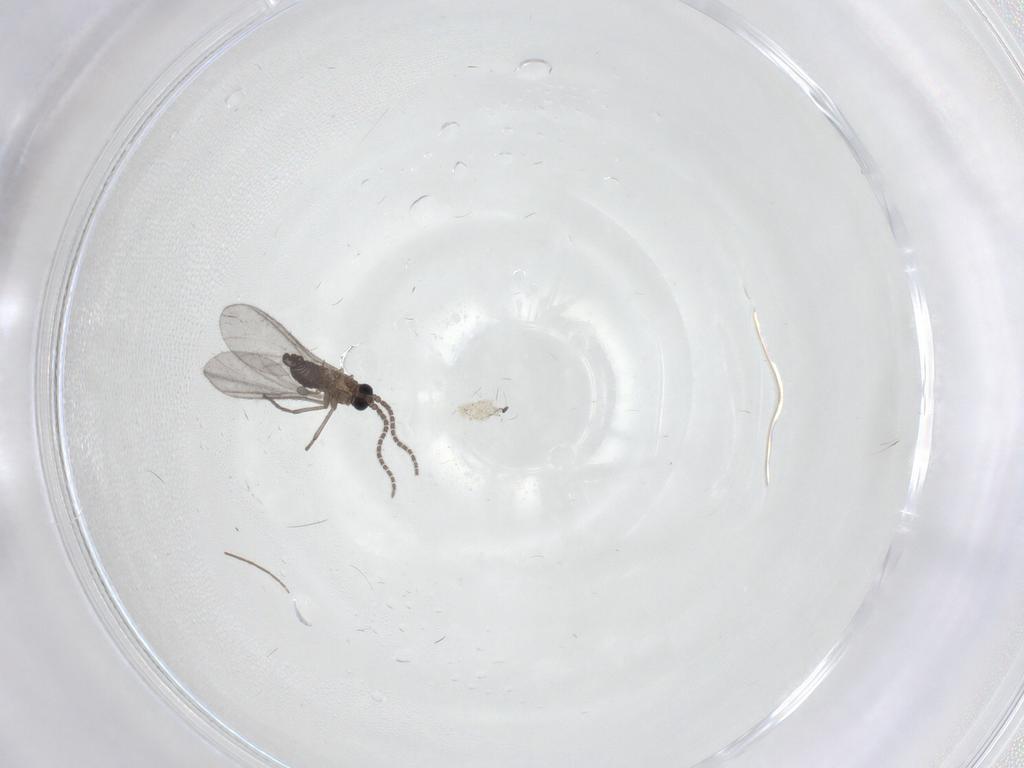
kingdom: Animalia
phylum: Arthropoda
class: Insecta
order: Diptera
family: Sciaridae
